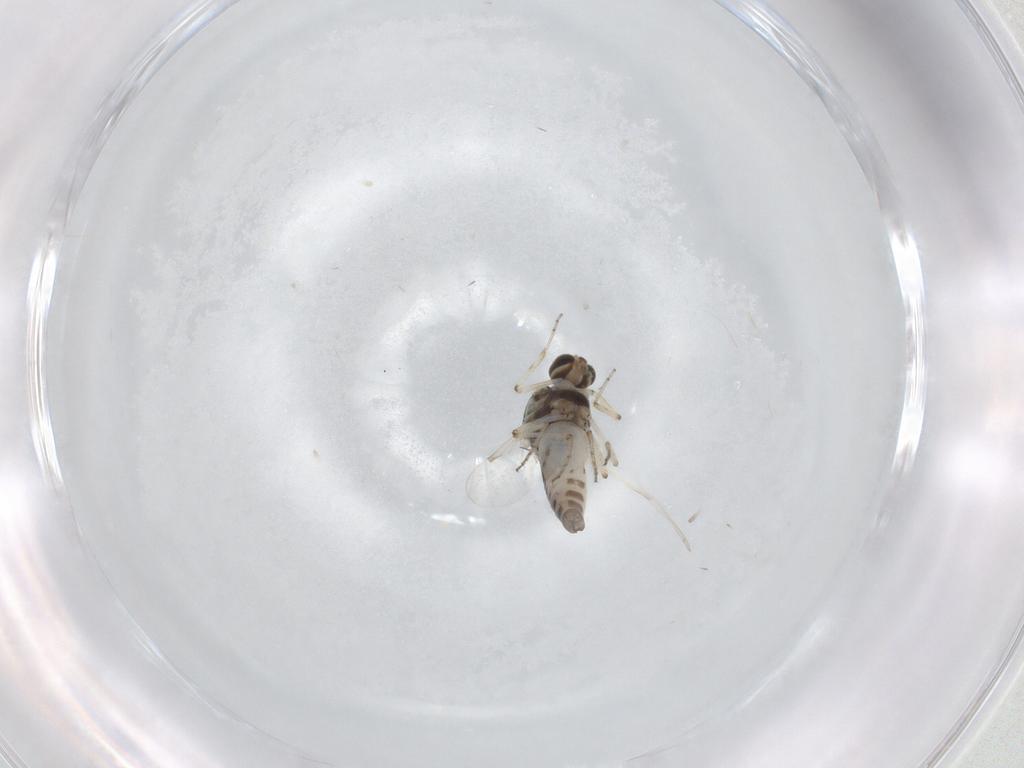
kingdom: Animalia
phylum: Arthropoda
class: Insecta
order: Diptera
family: Ceratopogonidae
